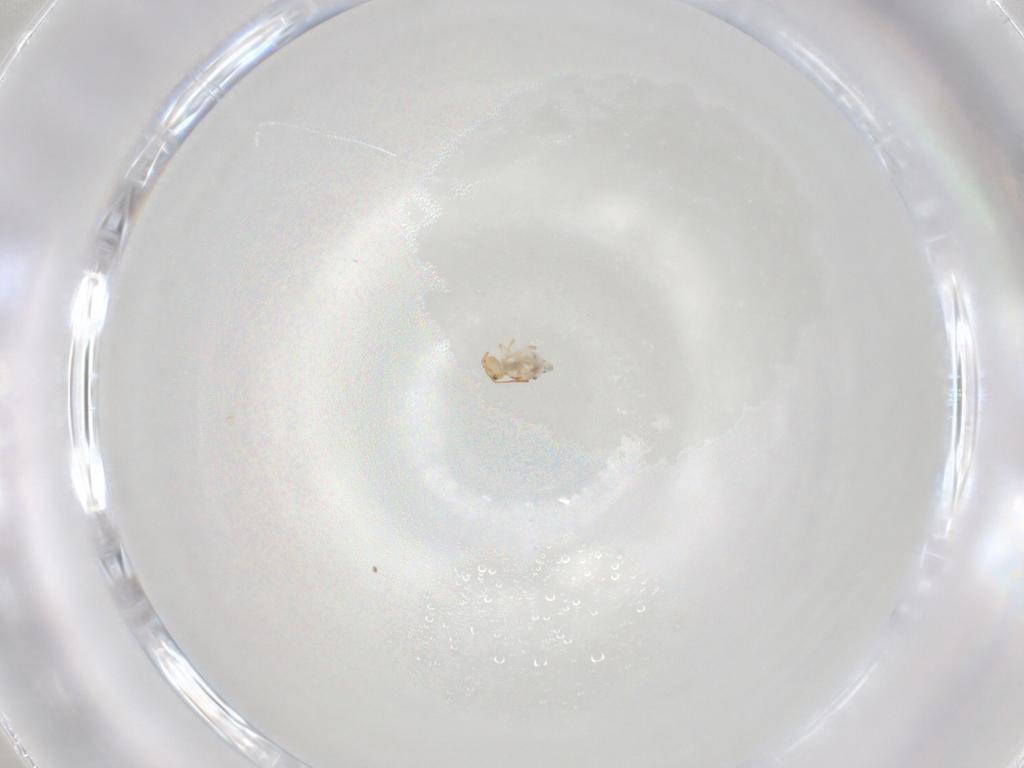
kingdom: Animalia
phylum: Arthropoda
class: Collembola
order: Symphypleona
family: Bourletiellidae
